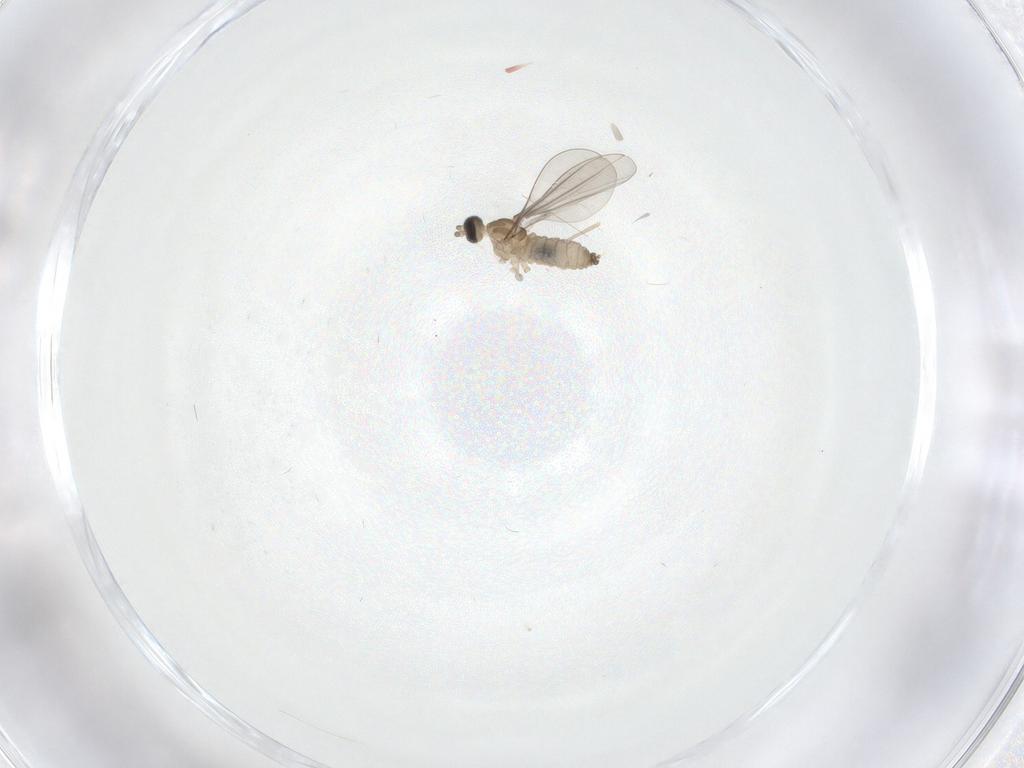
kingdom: Animalia
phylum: Arthropoda
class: Insecta
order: Diptera
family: Cecidomyiidae
